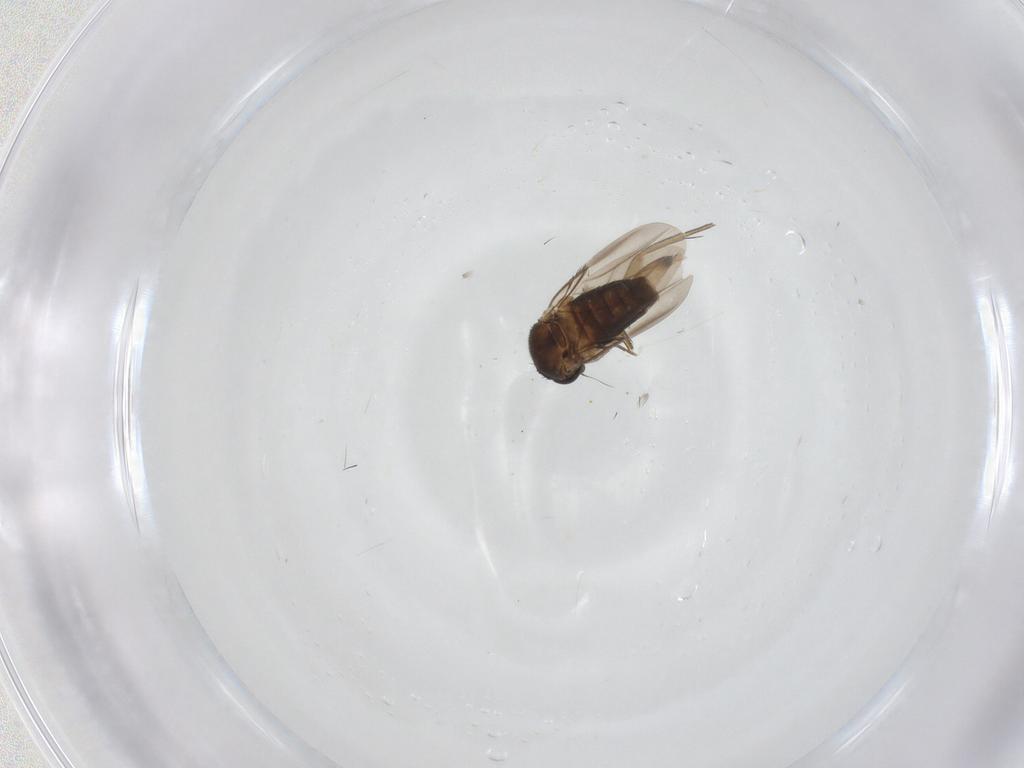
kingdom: Animalia
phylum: Arthropoda
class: Insecta
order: Diptera
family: Phoridae
